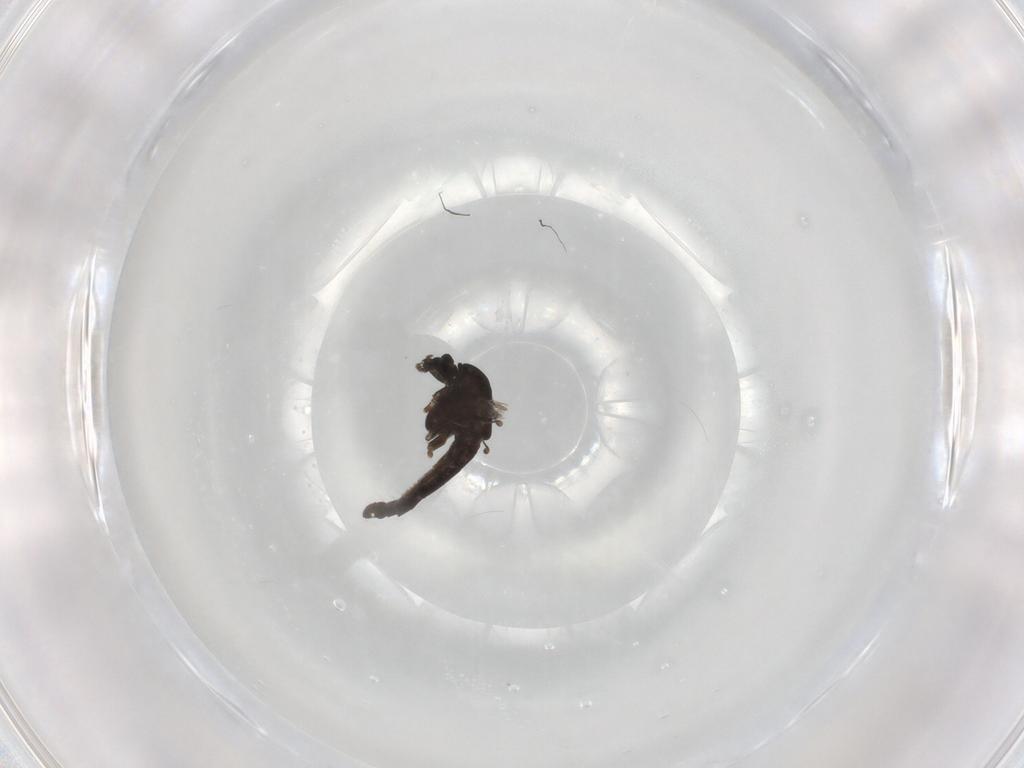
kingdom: Animalia
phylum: Arthropoda
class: Insecta
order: Diptera
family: Chironomidae
